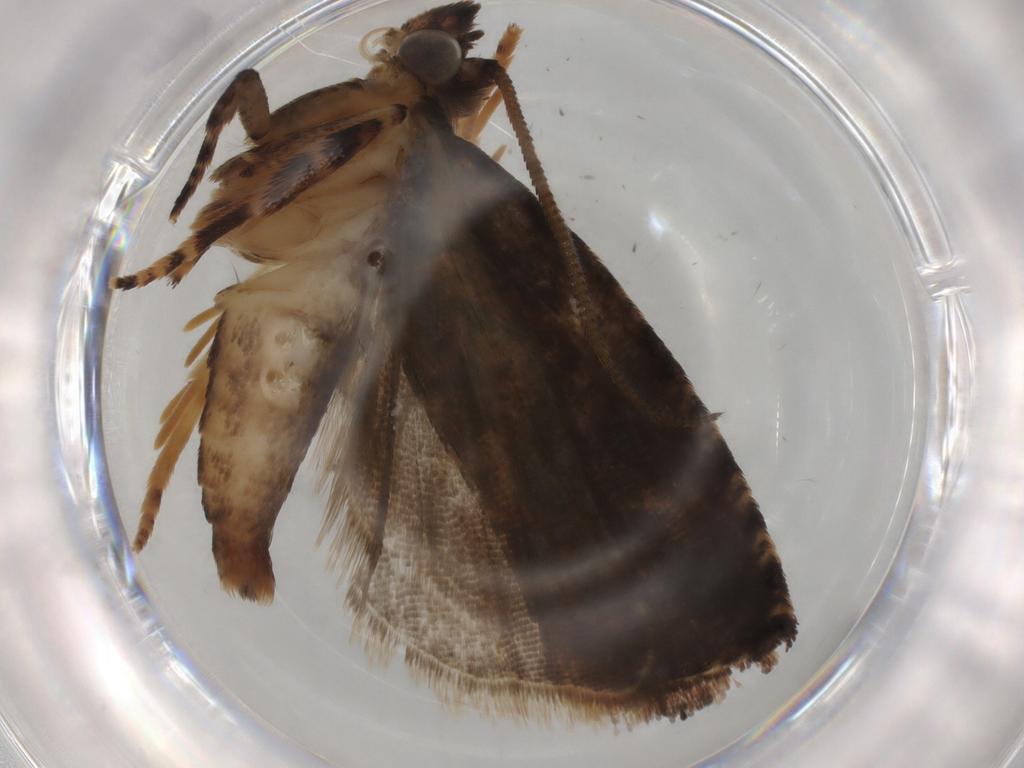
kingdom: Animalia
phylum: Arthropoda
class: Insecta
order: Lepidoptera
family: Tortricidae
